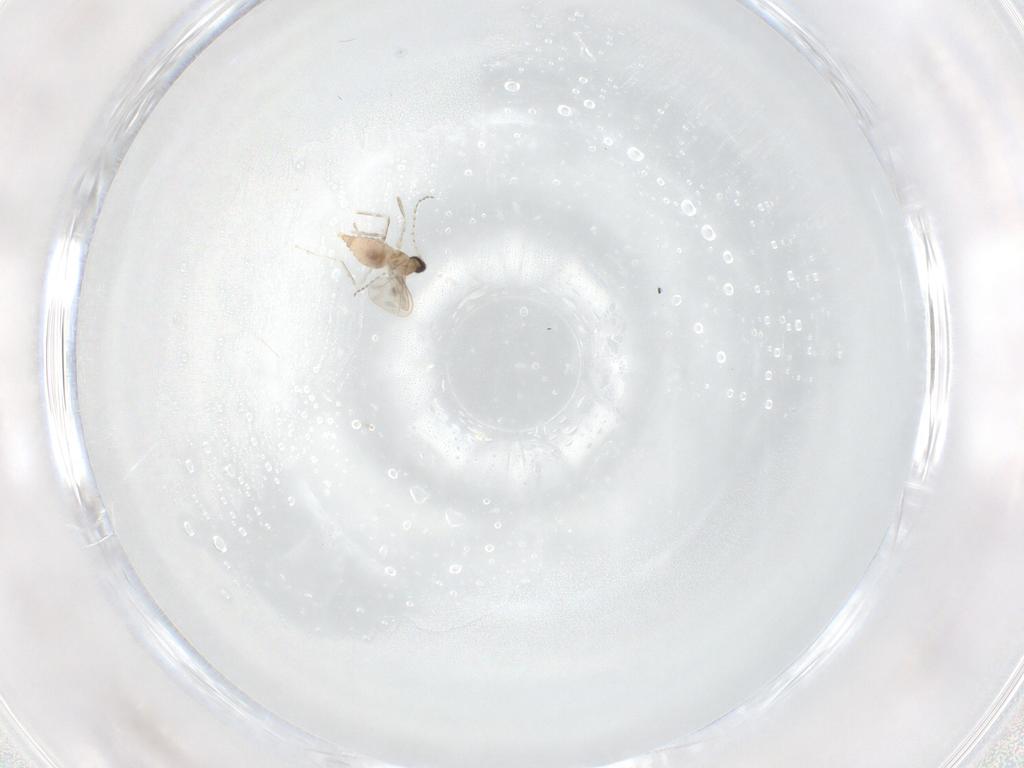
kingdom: Animalia
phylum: Arthropoda
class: Insecta
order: Diptera
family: Cecidomyiidae
